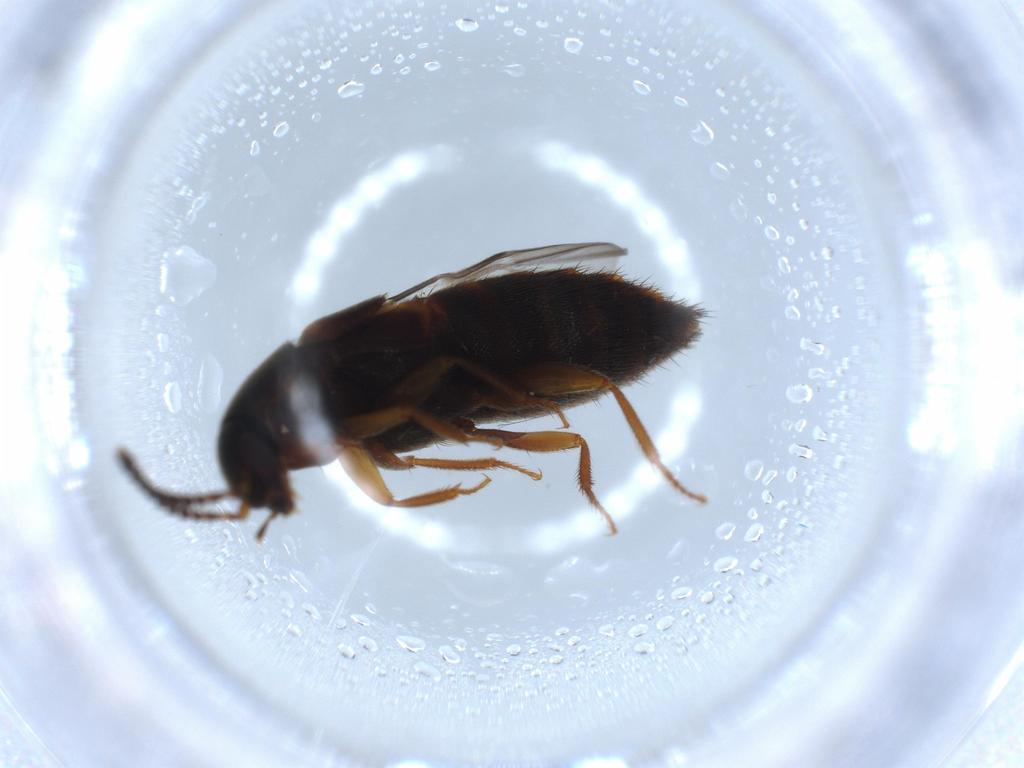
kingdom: Animalia
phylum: Arthropoda
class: Insecta
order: Coleoptera
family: Staphylinidae
